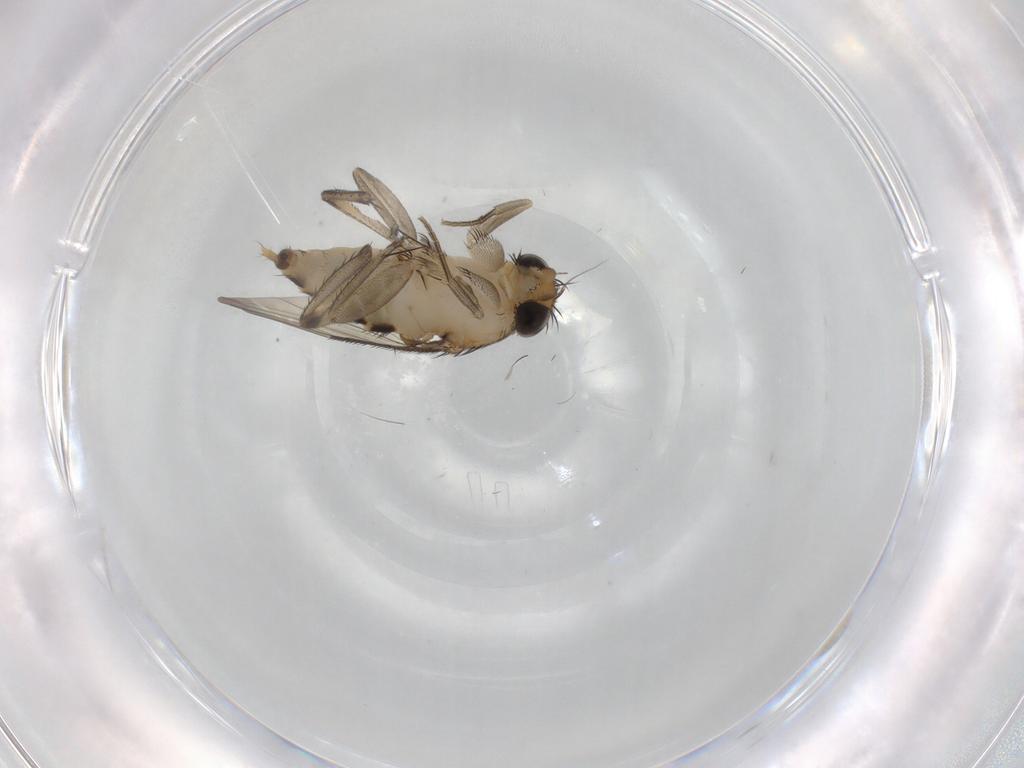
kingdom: Animalia
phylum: Arthropoda
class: Insecta
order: Diptera
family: Phoridae
